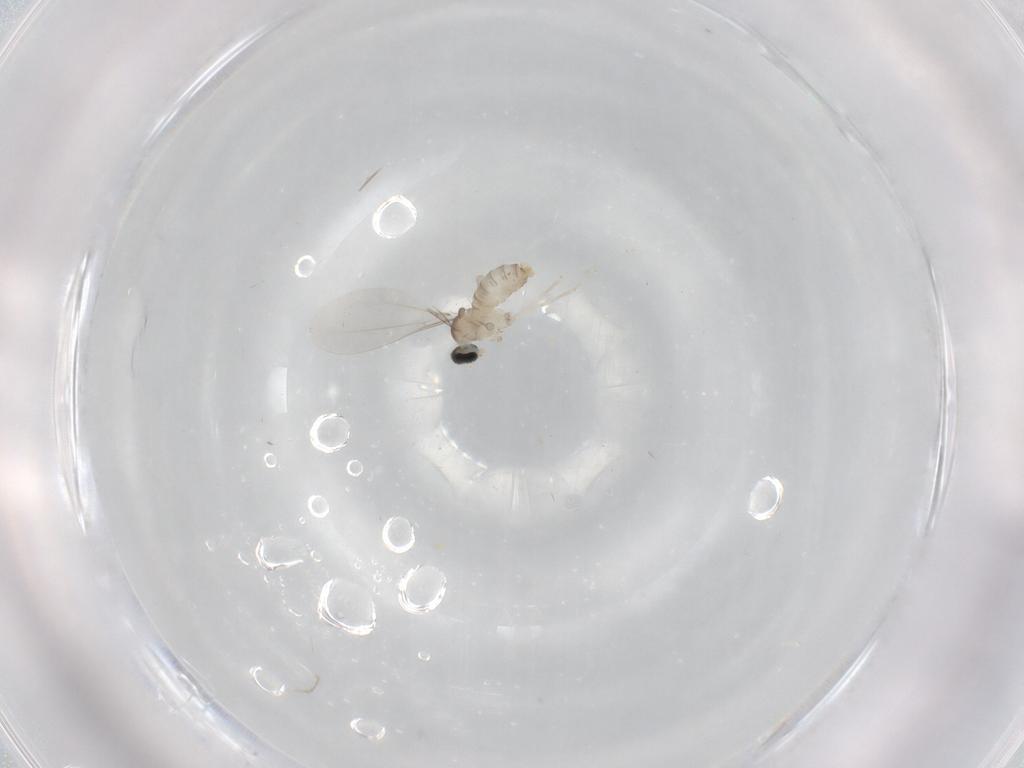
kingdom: Animalia
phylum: Arthropoda
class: Insecta
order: Diptera
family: Cecidomyiidae
